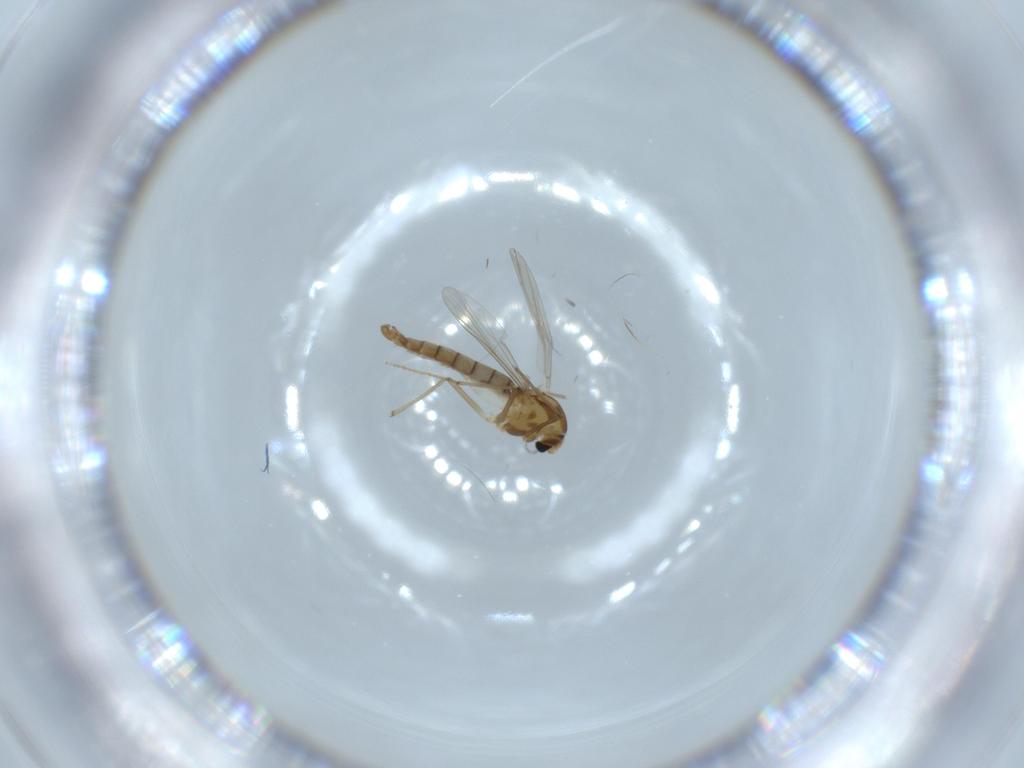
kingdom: Animalia
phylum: Arthropoda
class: Insecta
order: Diptera
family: Chironomidae
